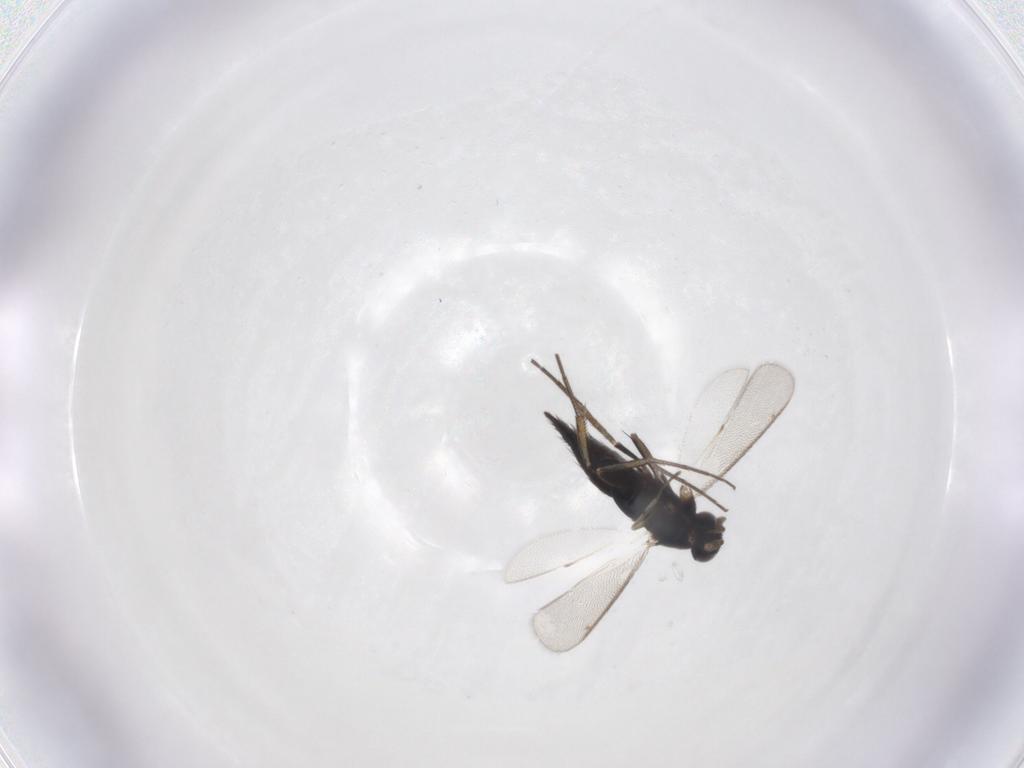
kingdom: Animalia
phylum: Arthropoda
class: Insecta
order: Hymenoptera
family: Eulophidae
